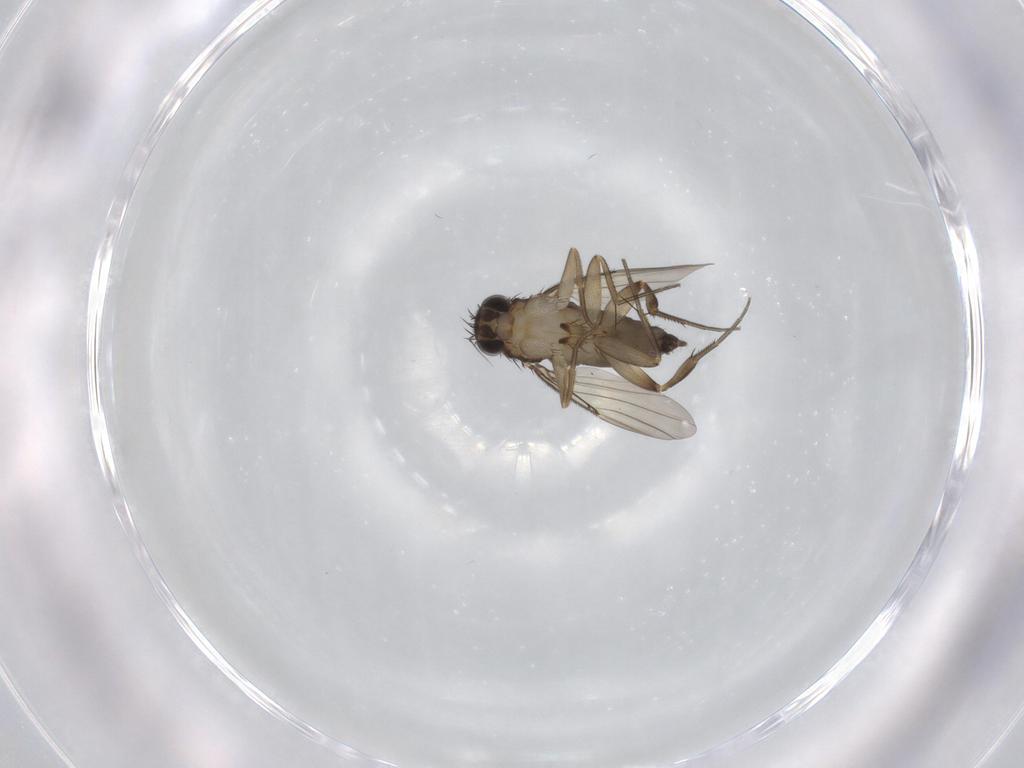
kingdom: Animalia
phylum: Arthropoda
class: Insecta
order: Diptera
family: Phoridae
